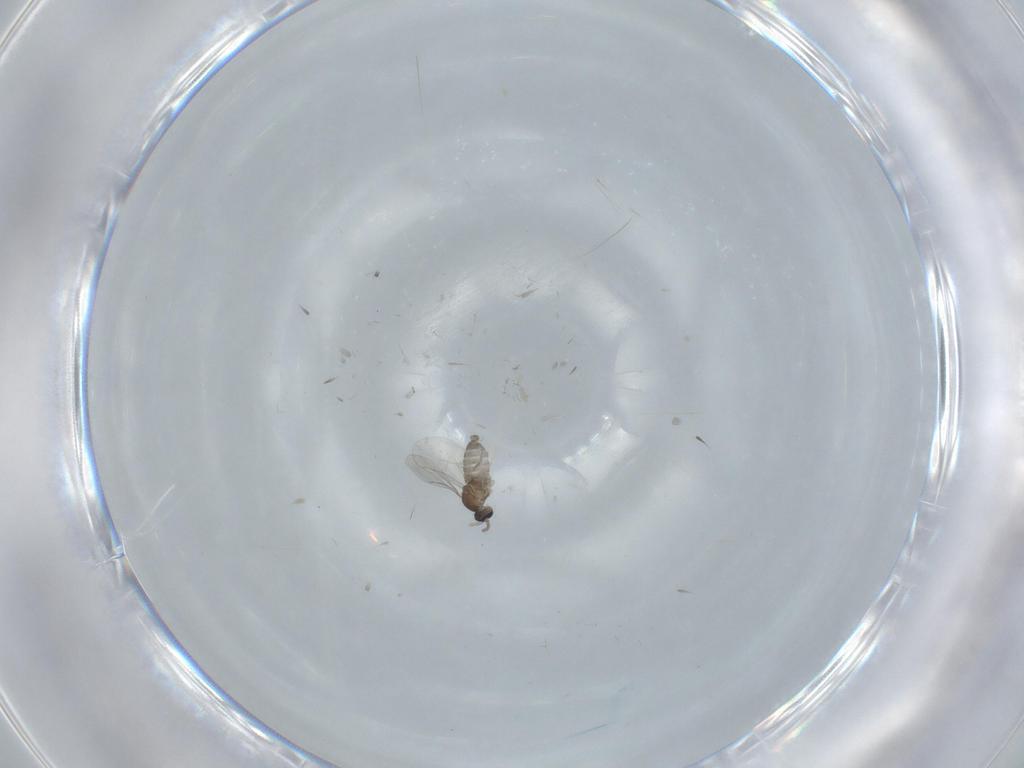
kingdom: Animalia
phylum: Arthropoda
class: Insecta
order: Diptera
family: Cecidomyiidae
